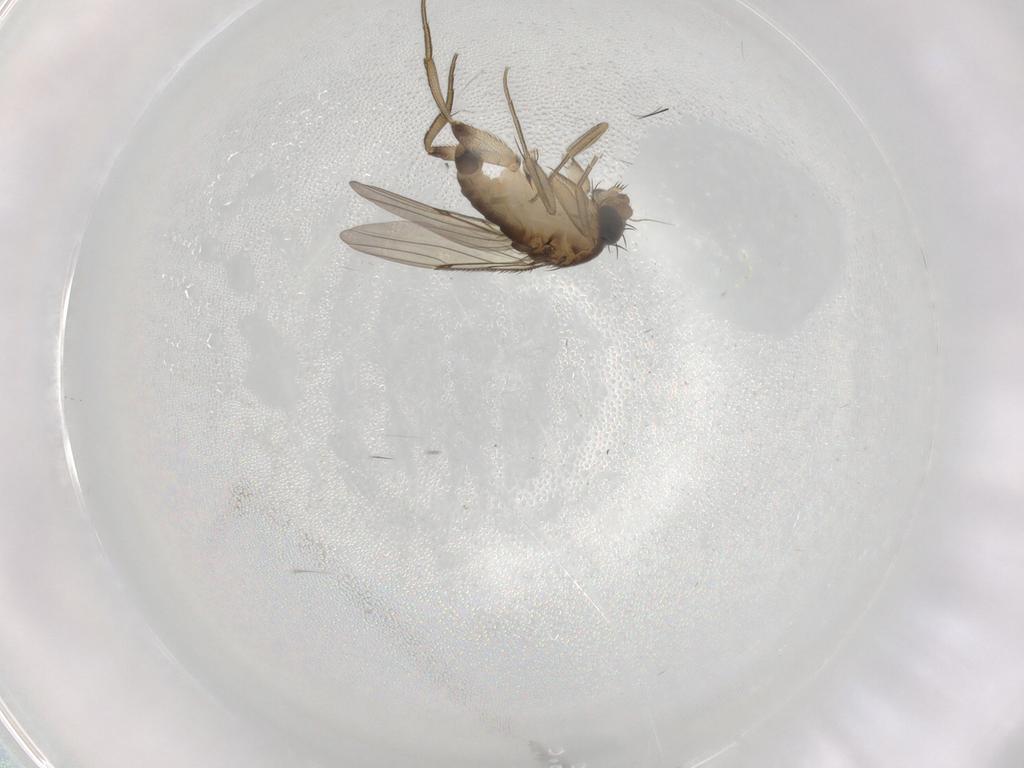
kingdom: Animalia
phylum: Arthropoda
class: Insecta
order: Diptera
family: Phoridae
